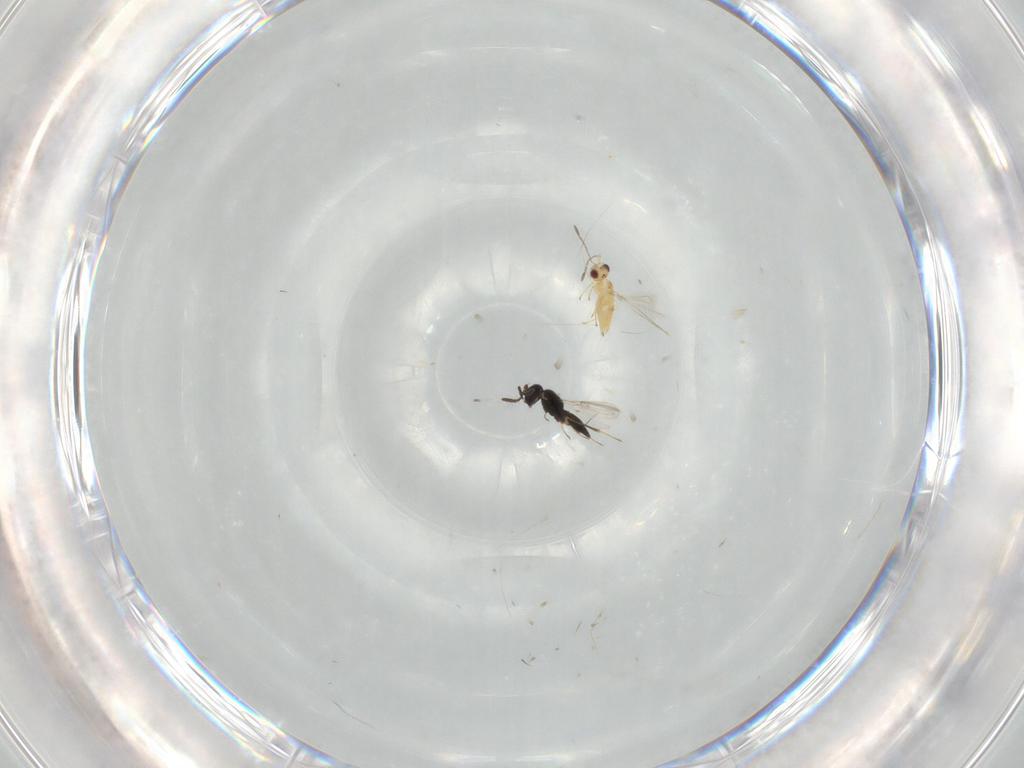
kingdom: Animalia
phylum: Arthropoda
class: Insecta
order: Hymenoptera
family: Scelionidae
